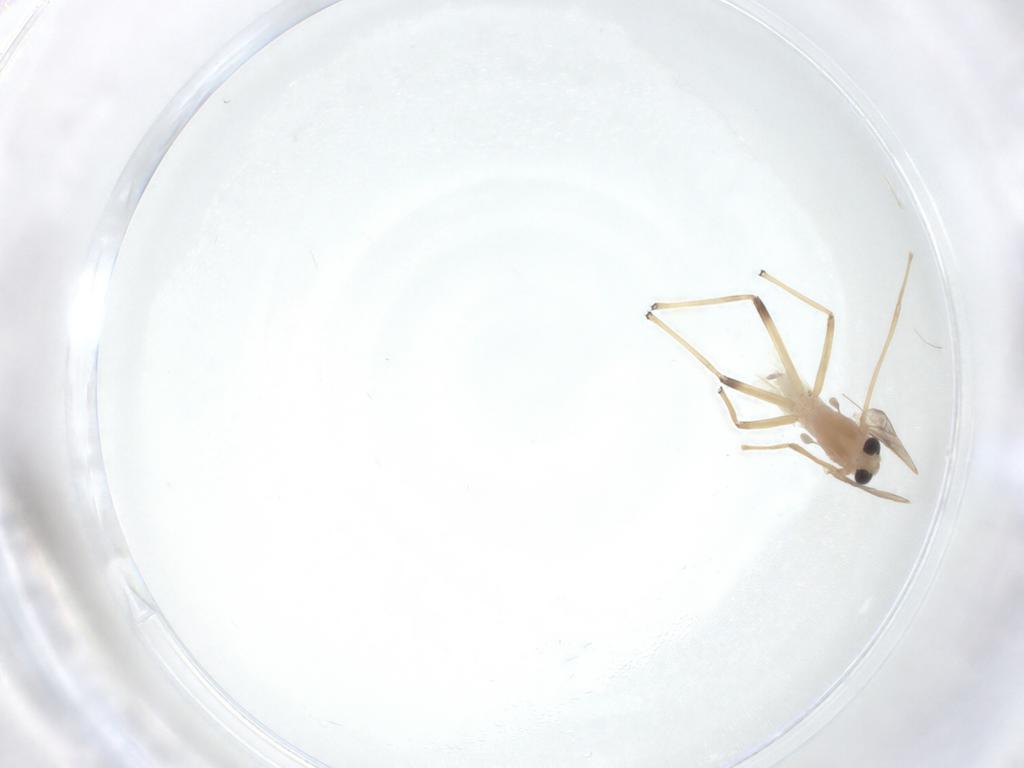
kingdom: Animalia
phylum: Arthropoda
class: Insecta
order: Diptera
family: Chironomidae
